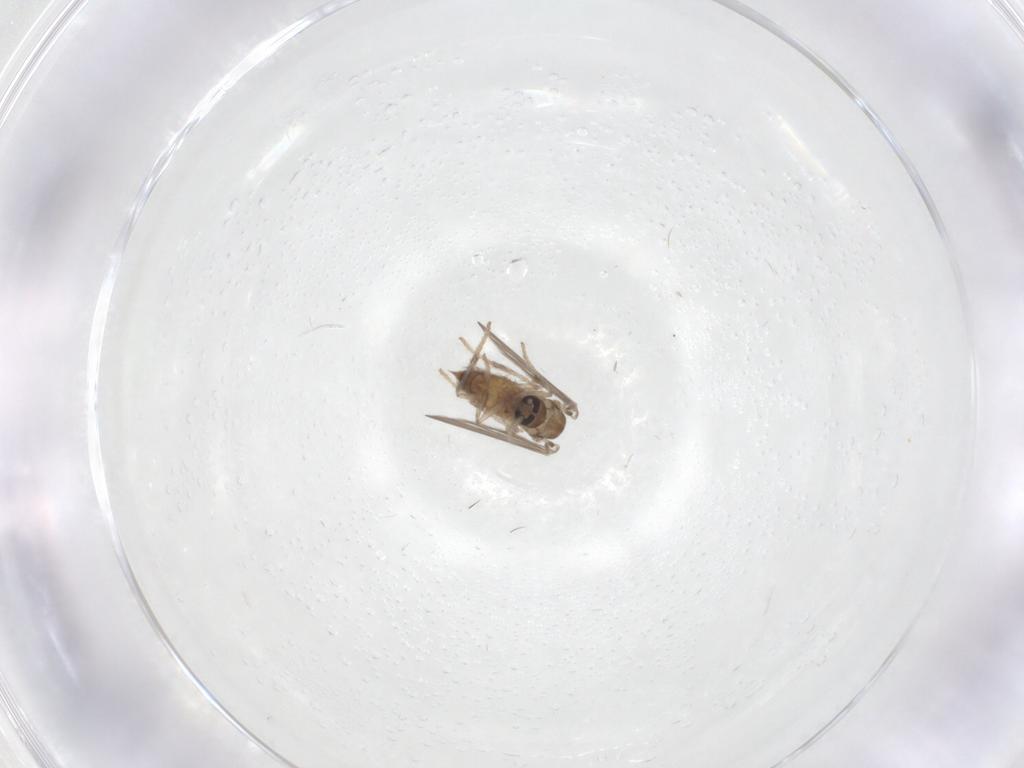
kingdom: Animalia
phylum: Arthropoda
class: Insecta
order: Diptera
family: Psychodidae
